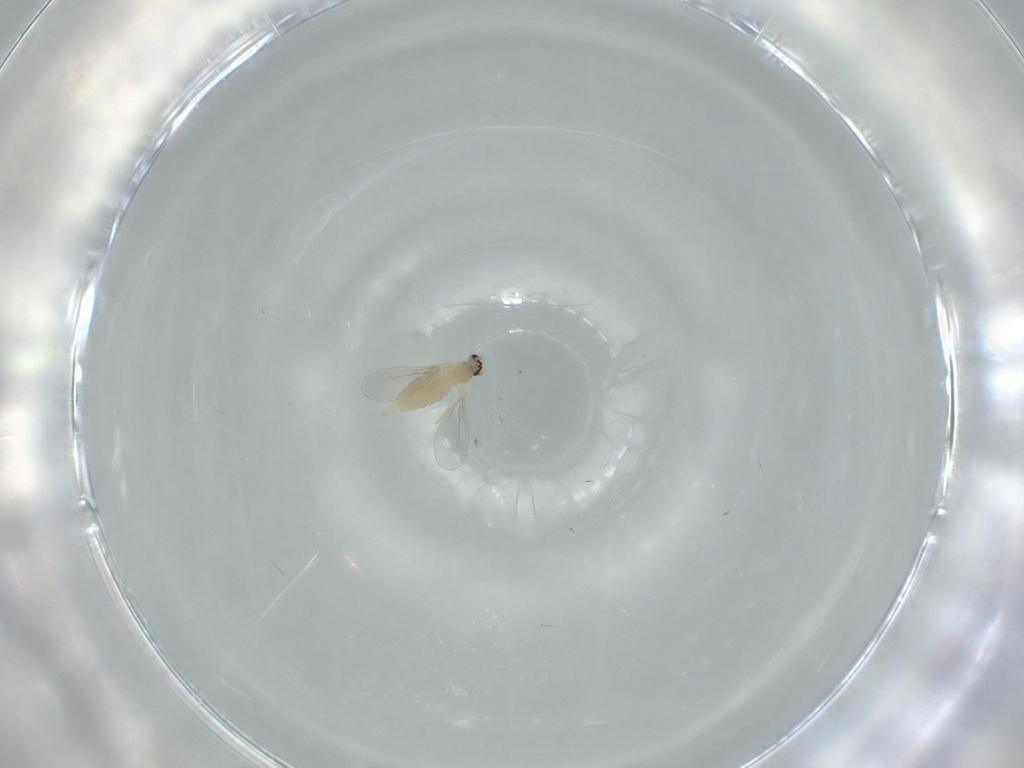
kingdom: Animalia
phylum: Arthropoda
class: Insecta
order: Diptera
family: Cecidomyiidae
